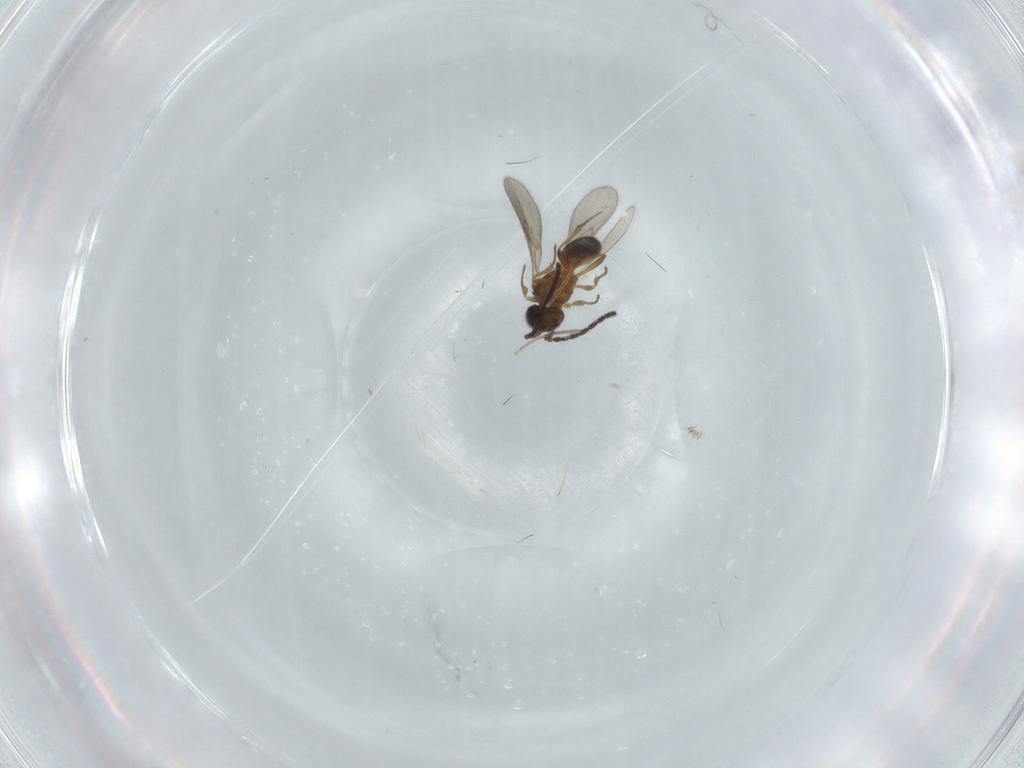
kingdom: Animalia
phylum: Arthropoda
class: Insecta
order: Hymenoptera
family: Scelionidae
